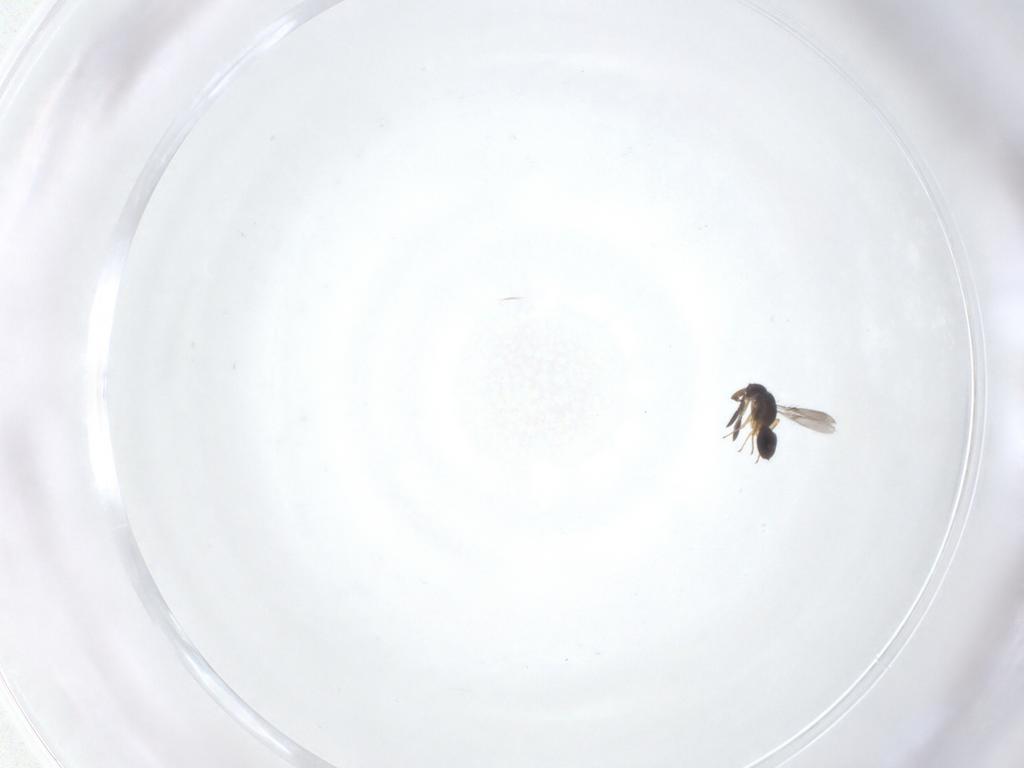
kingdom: Animalia
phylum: Arthropoda
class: Insecta
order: Hymenoptera
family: Mymaridae
